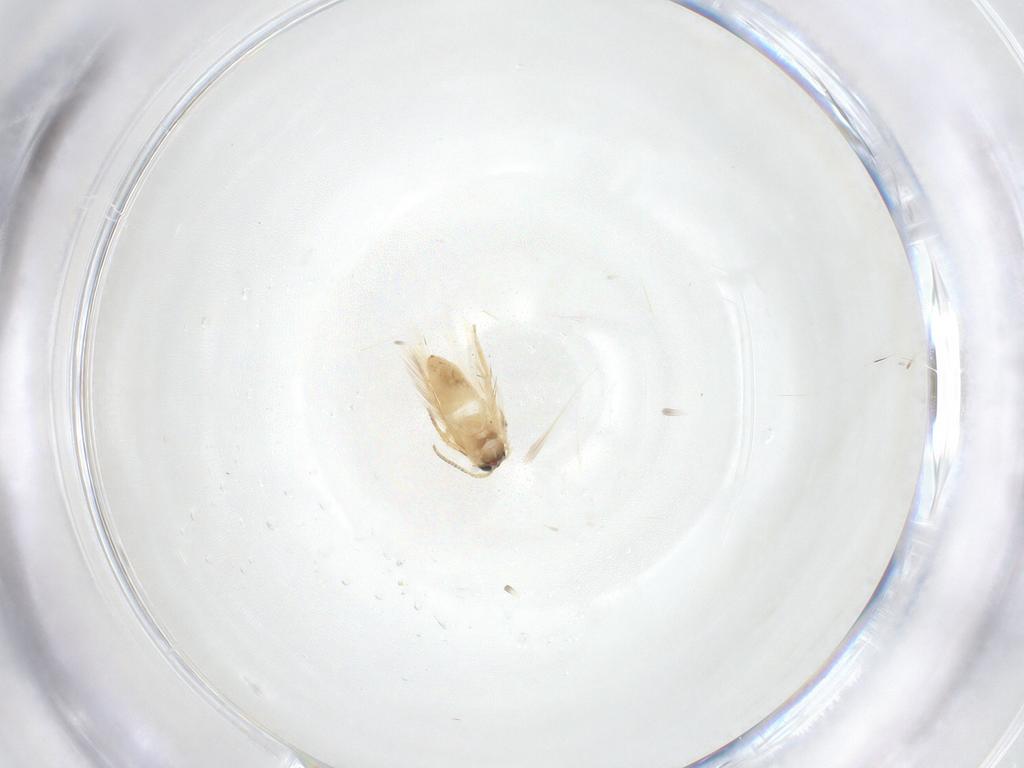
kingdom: Animalia
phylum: Arthropoda
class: Insecta
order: Lepidoptera
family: Crambidae
